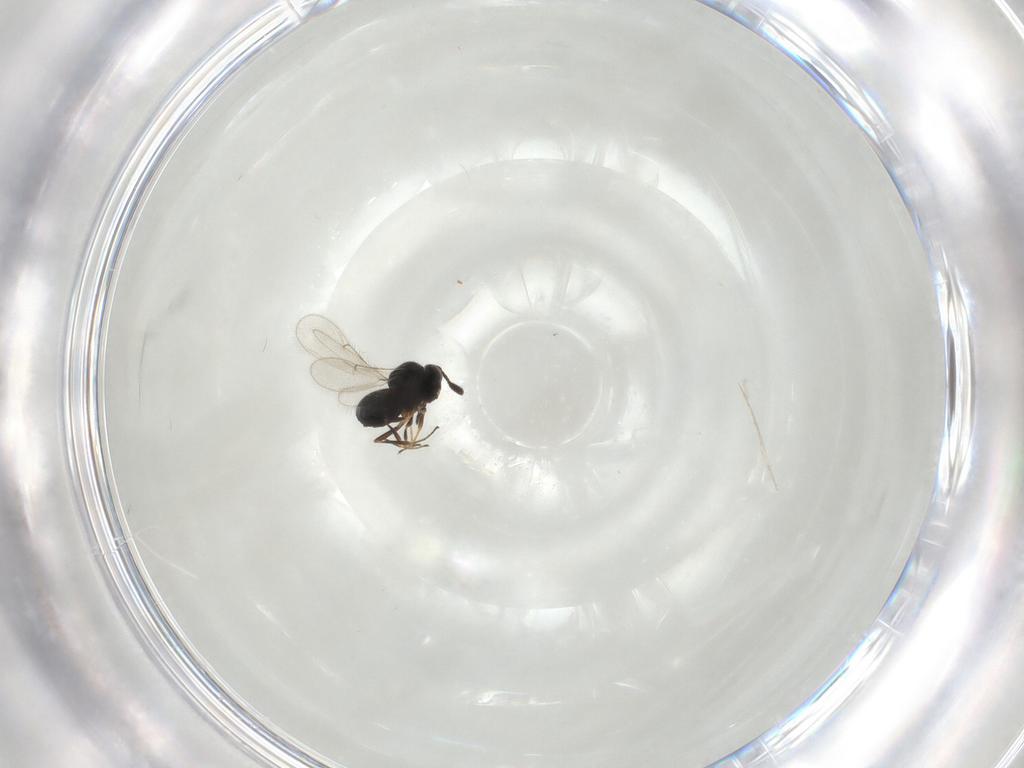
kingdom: Animalia
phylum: Arthropoda
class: Insecta
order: Hymenoptera
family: Scelionidae
